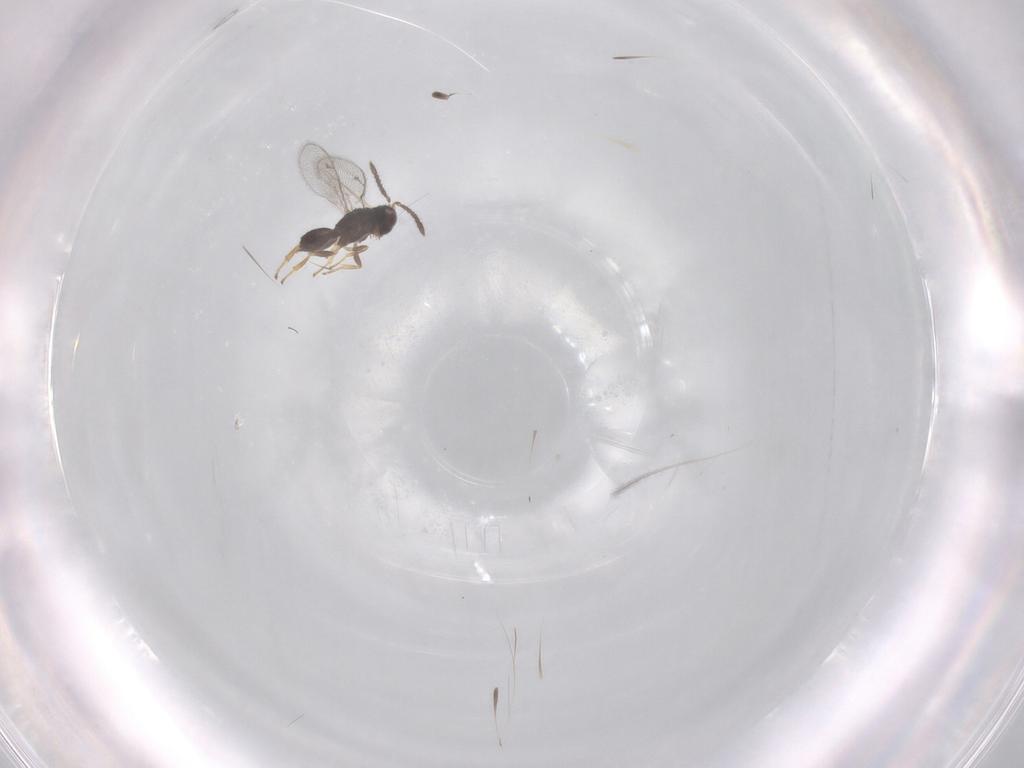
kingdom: Animalia
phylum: Arthropoda
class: Insecta
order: Hymenoptera
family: Pirenidae
